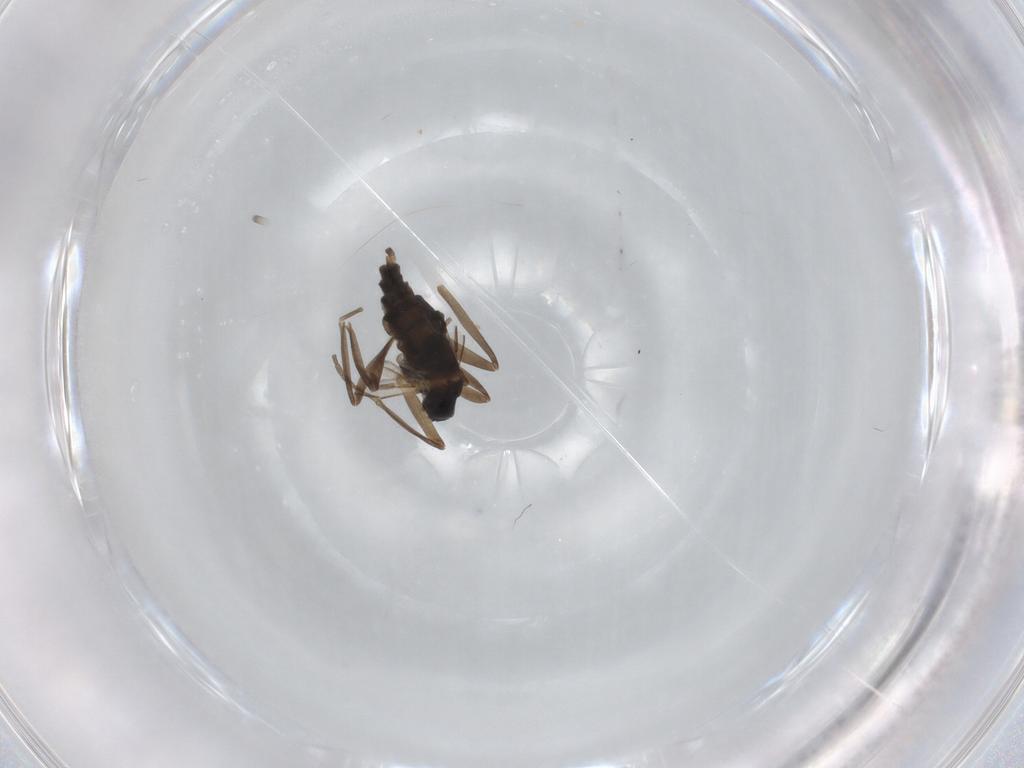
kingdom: Animalia
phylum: Arthropoda
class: Insecta
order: Diptera
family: Cecidomyiidae
